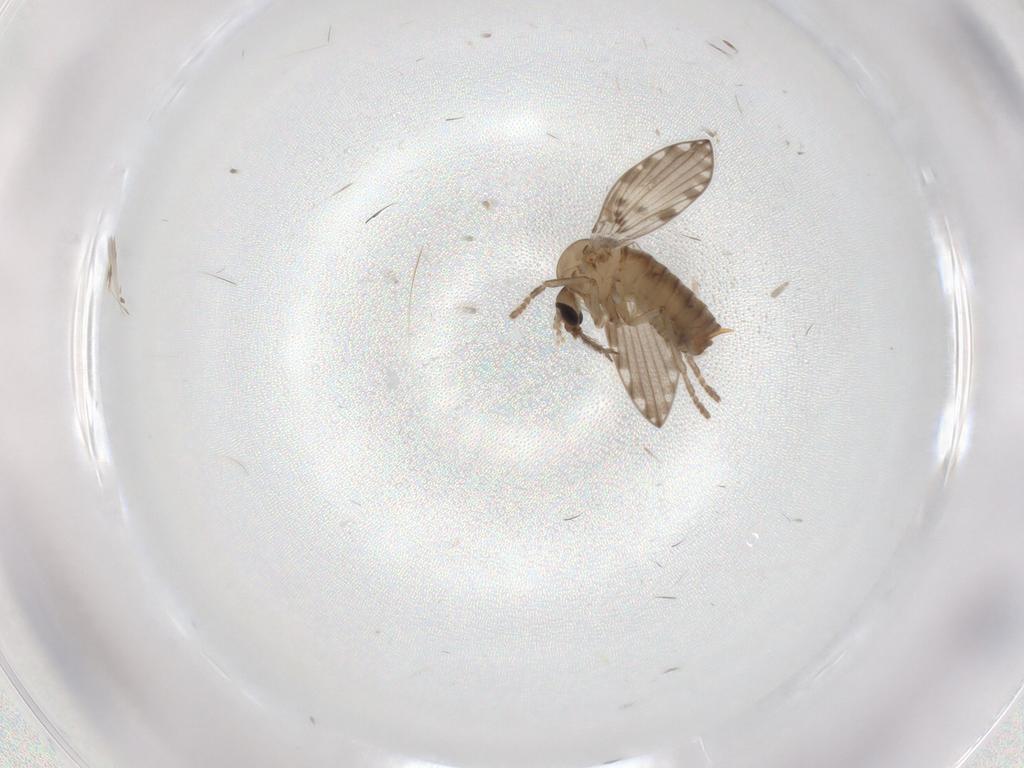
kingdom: Animalia
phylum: Arthropoda
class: Insecta
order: Diptera
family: Psychodidae
